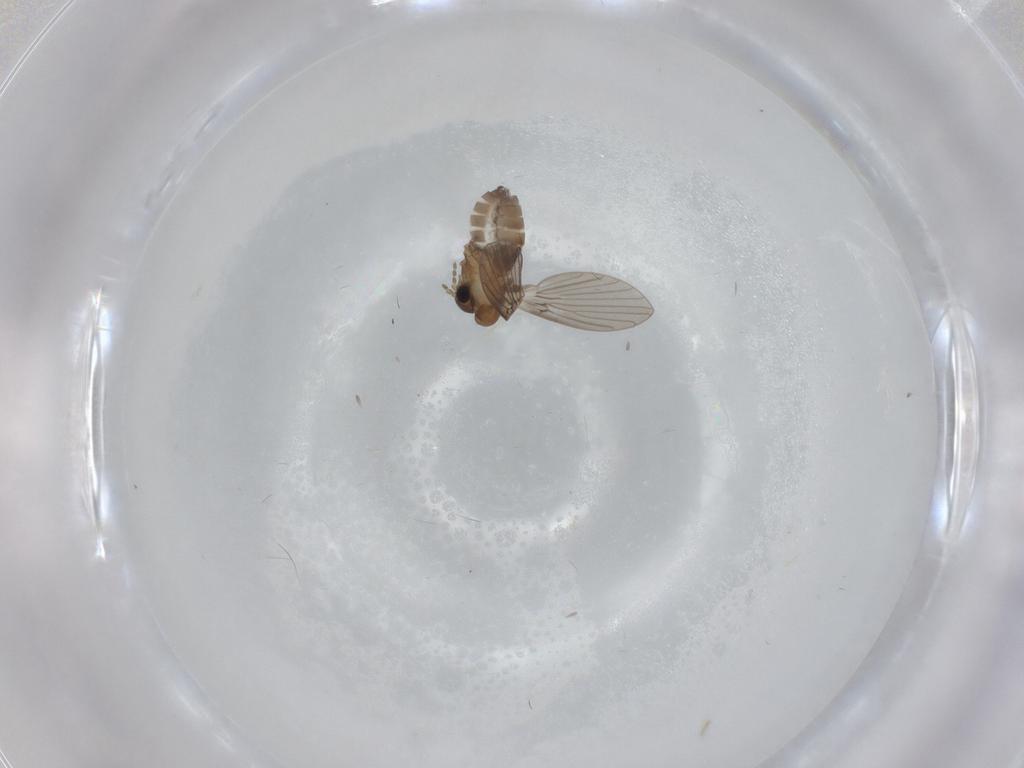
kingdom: Animalia
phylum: Arthropoda
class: Insecta
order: Diptera
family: Psychodidae
